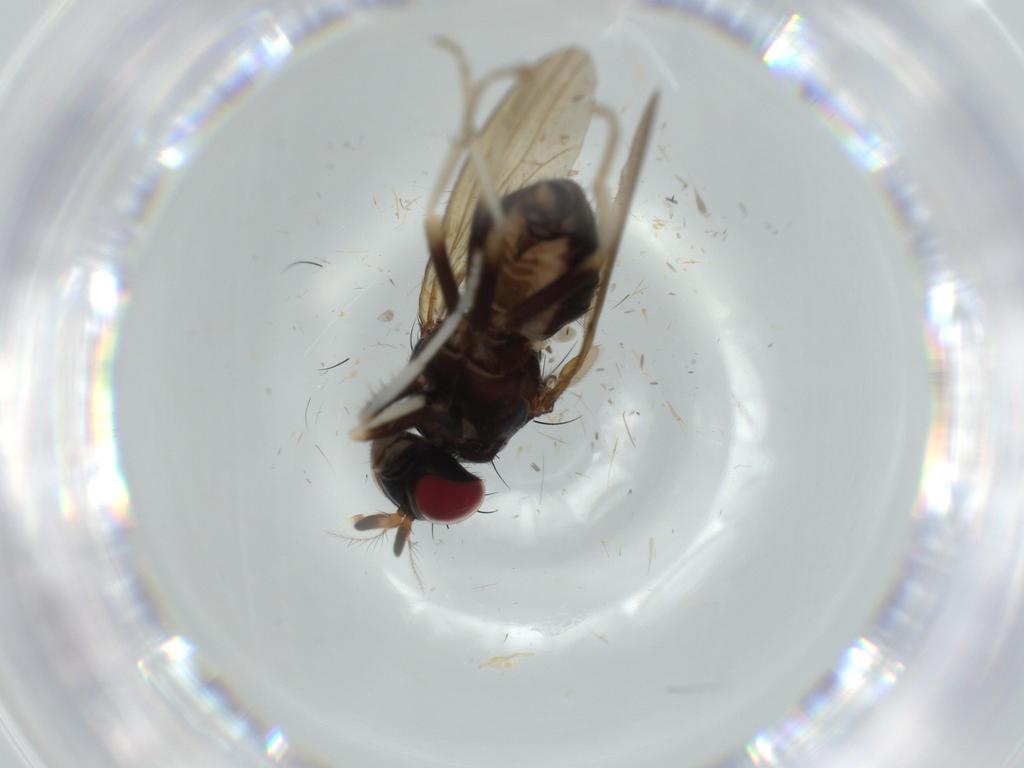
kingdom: Animalia
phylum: Arthropoda
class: Insecta
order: Diptera
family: Lauxaniidae
